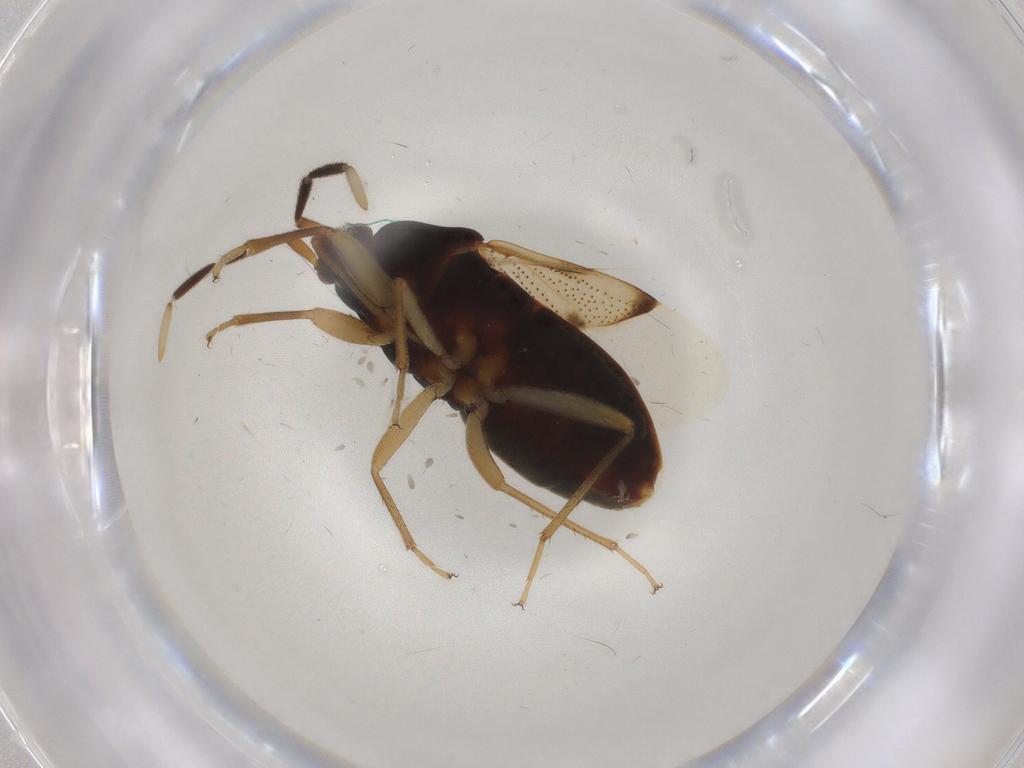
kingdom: Animalia
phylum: Arthropoda
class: Insecta
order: Hemiptera
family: Rhyparochromidae
